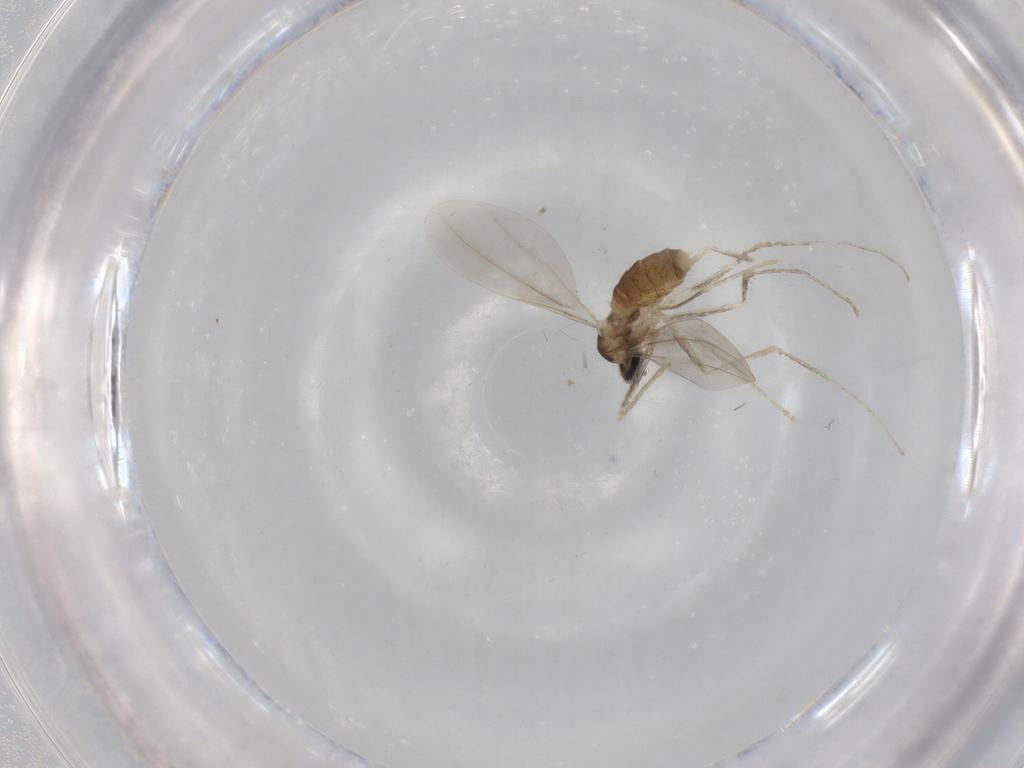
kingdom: Animalia
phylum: Arthropoda
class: Insecta
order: Diptera
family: Cecidomyiidae
